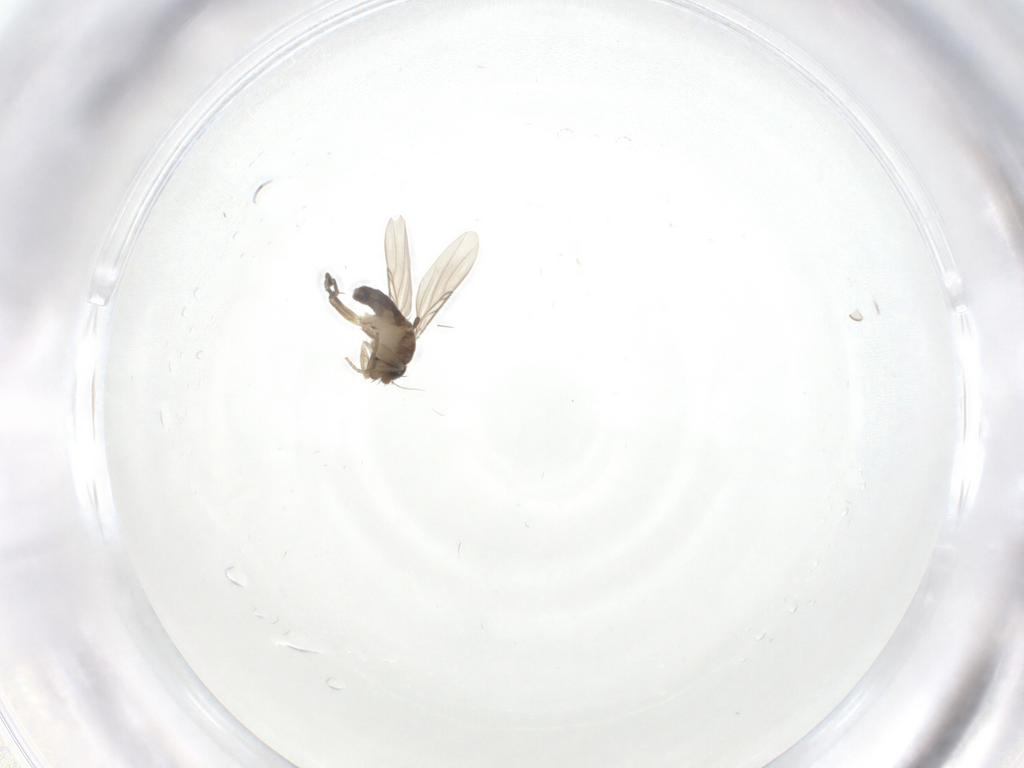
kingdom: Animalia
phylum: Arthropoda
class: Insecta
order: Diptera
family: Phoridae
